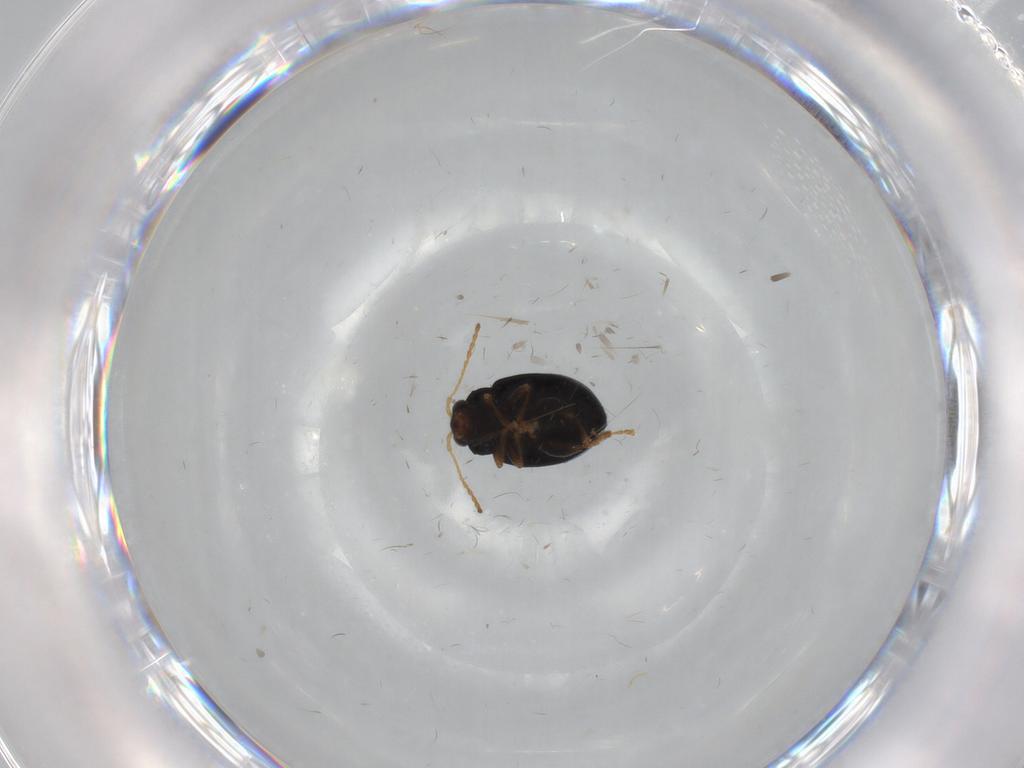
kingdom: Animalia
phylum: Arthropoda
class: Insecta
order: Coleoptera
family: Chrysomelidae
